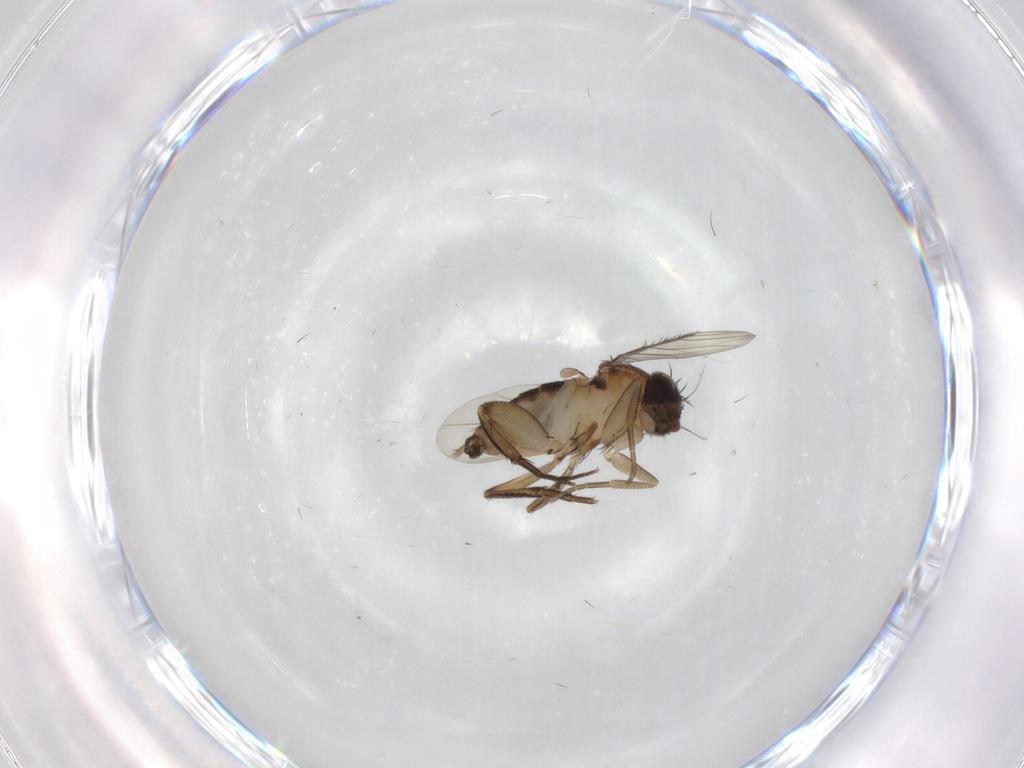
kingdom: Animalia
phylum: Arthropoda
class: Insecta
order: Diptera
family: Phoridae
